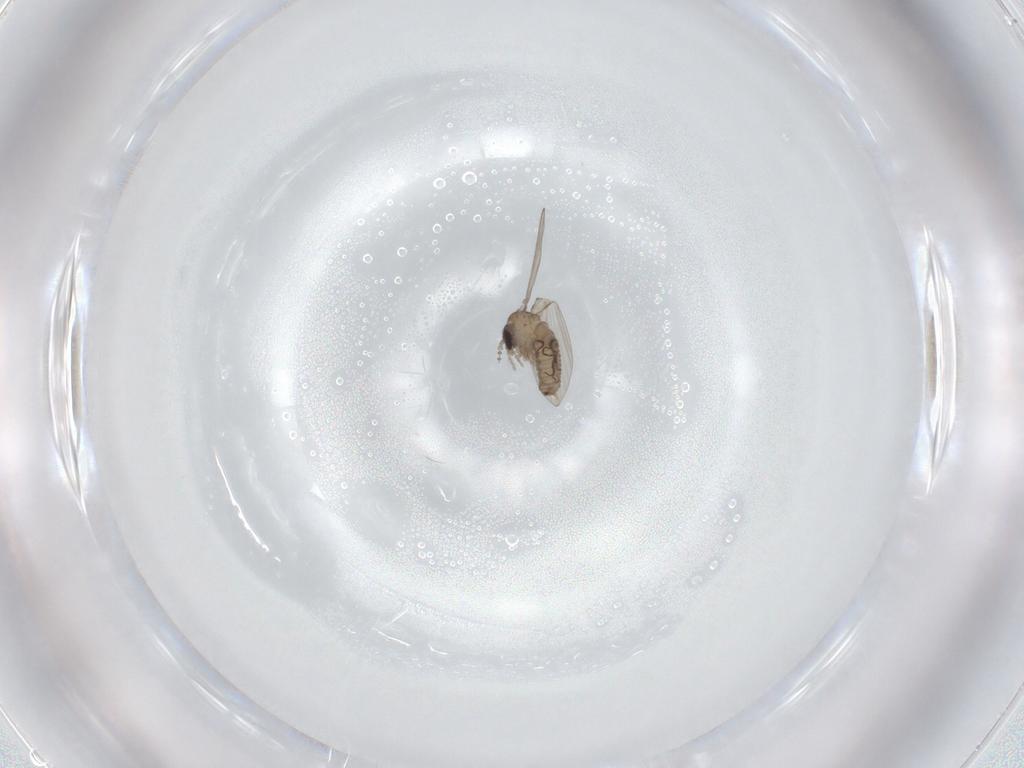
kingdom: Animalia
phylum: Arthropoda
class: Insecta
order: Diptera
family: Psychodidae
